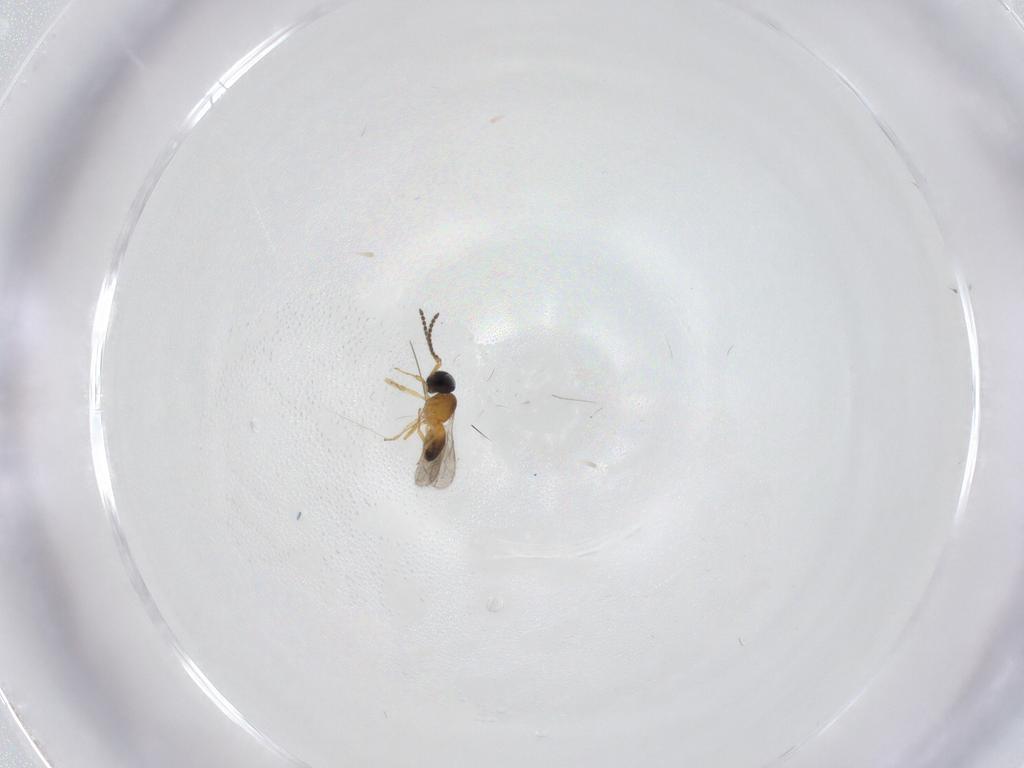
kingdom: Animalia
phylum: Arthropoda
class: Insecta
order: Hymenoptera
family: Scelionidae
